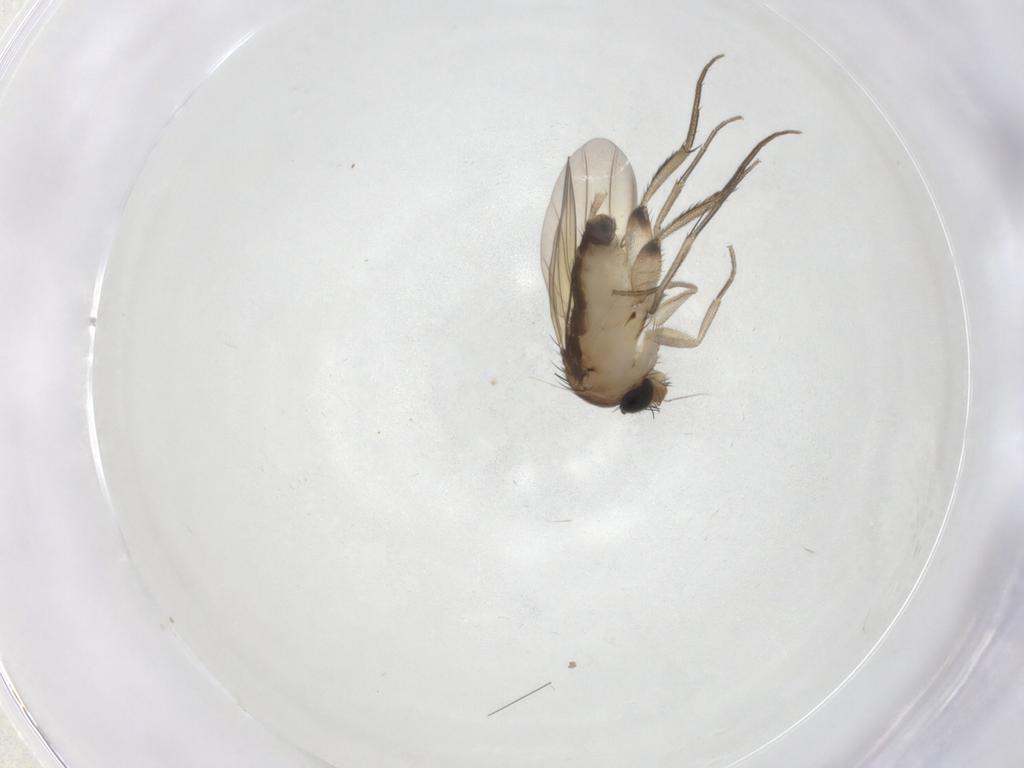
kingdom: Animalia
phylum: Arthropoda
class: Insecta
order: Diptera
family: Phoridae
